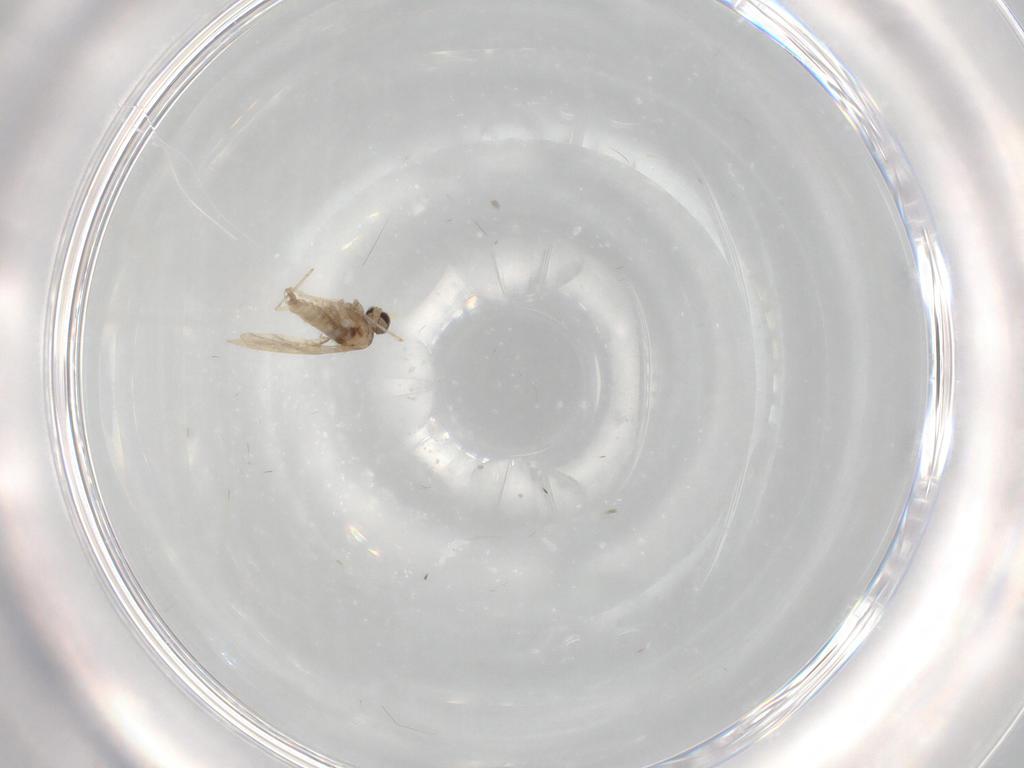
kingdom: Animalia
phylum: Arthropoda
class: Insecta
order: Diptera
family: Cecidomyiidae
